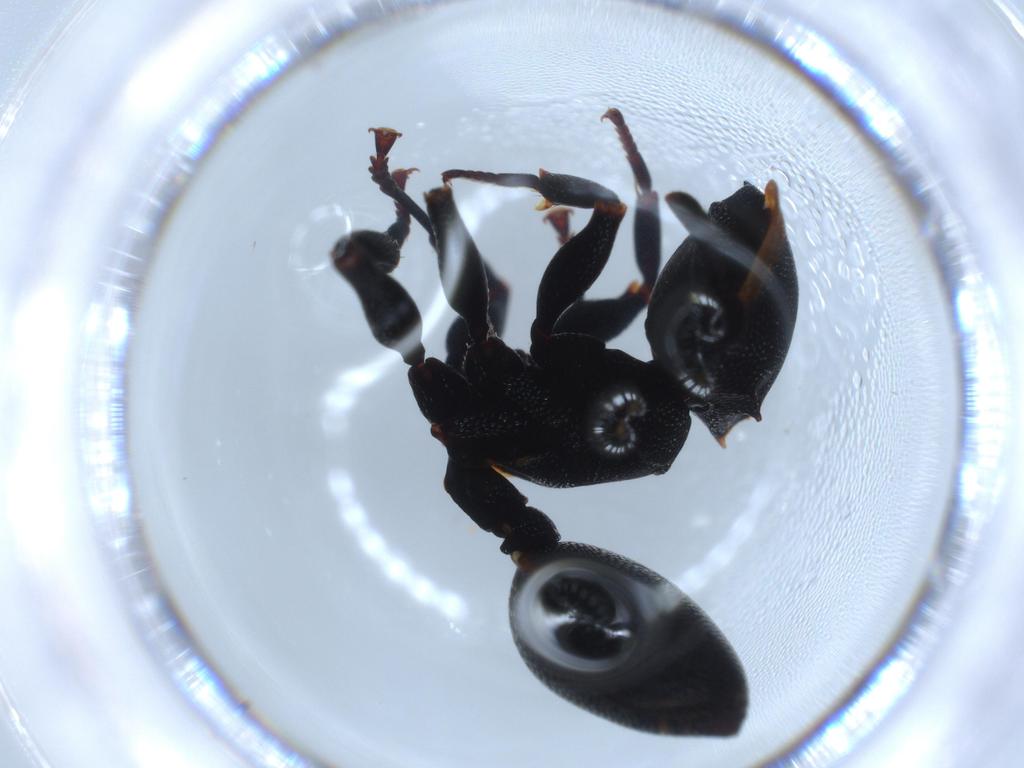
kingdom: Animalia
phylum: Arthropoda
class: Insecta
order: Hymenoptera
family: Formicidae
